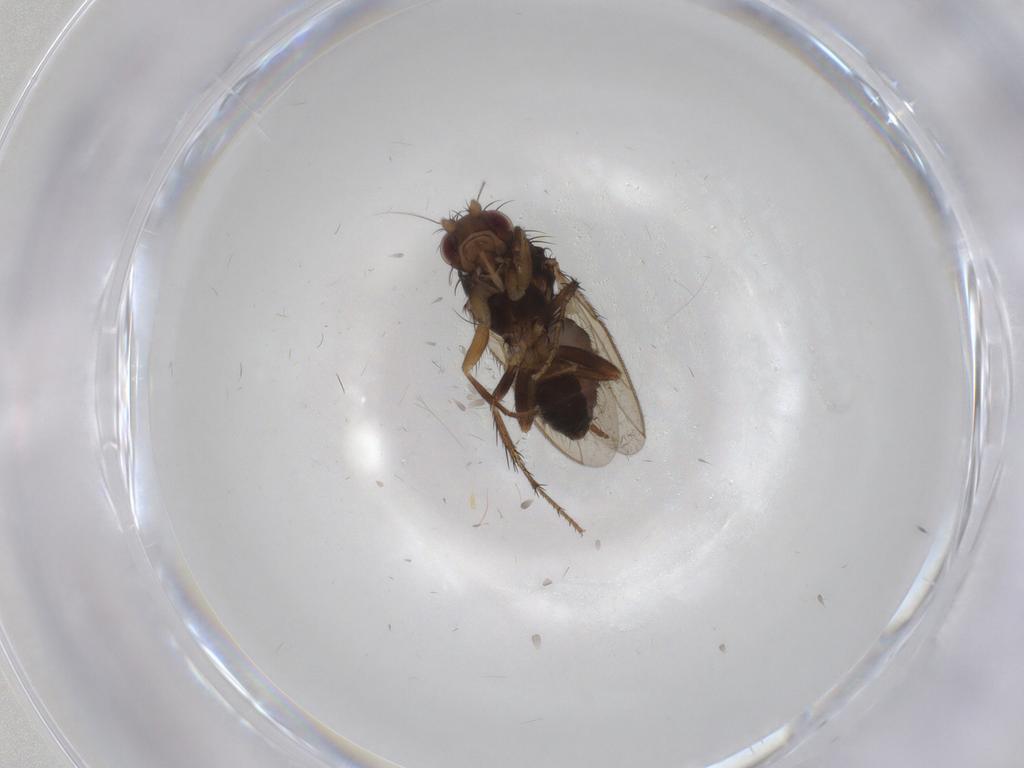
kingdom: Animalia
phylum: Arthropoda
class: Insecta
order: Diptera
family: Sphaeroceridae
